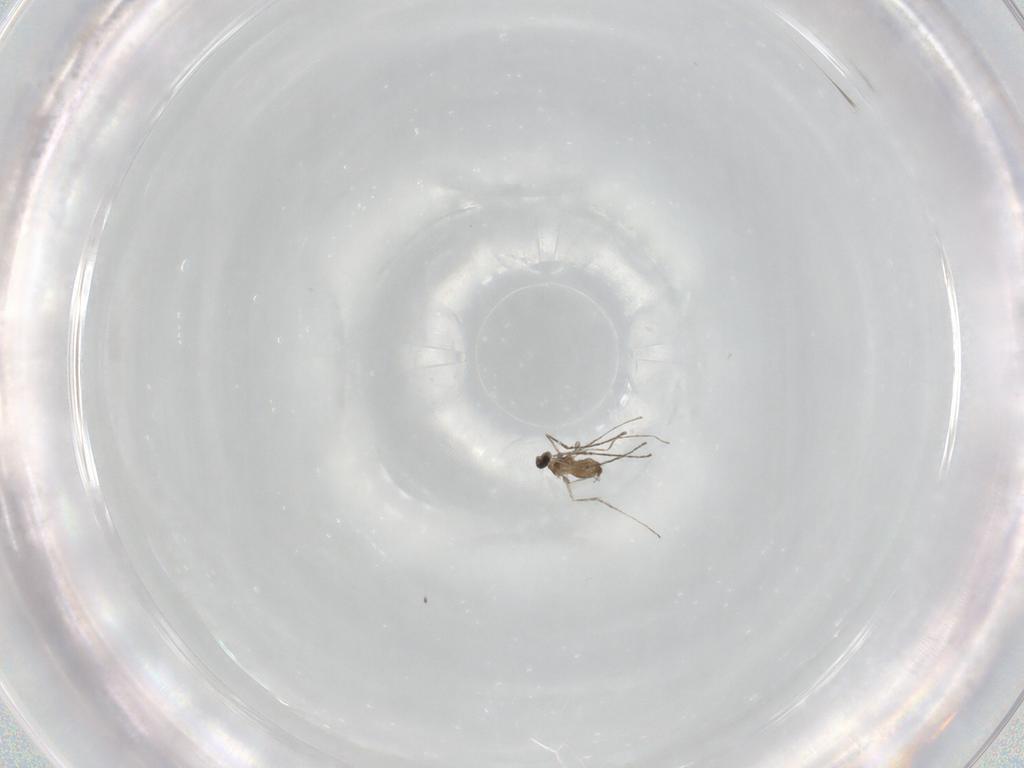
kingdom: Animalia
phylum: Arthropoda
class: Insecta
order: Diptera
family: Cecidomyiidae
